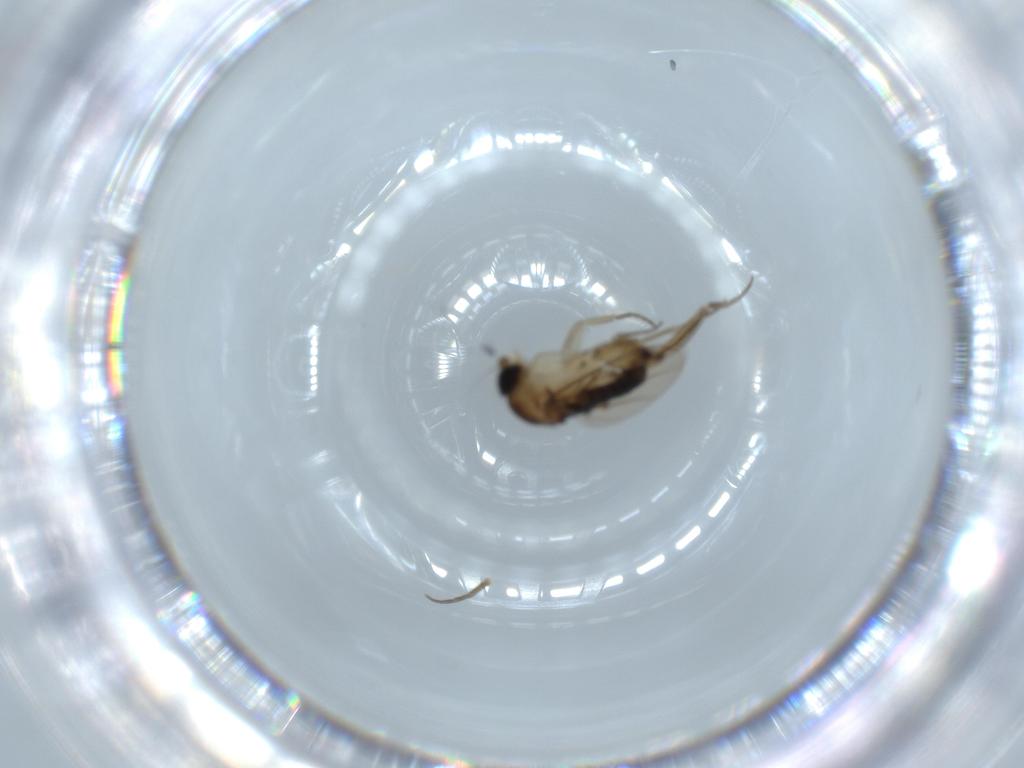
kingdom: Animalia
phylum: Arthropoda
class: Insecta
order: Diptera
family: Phoridae
